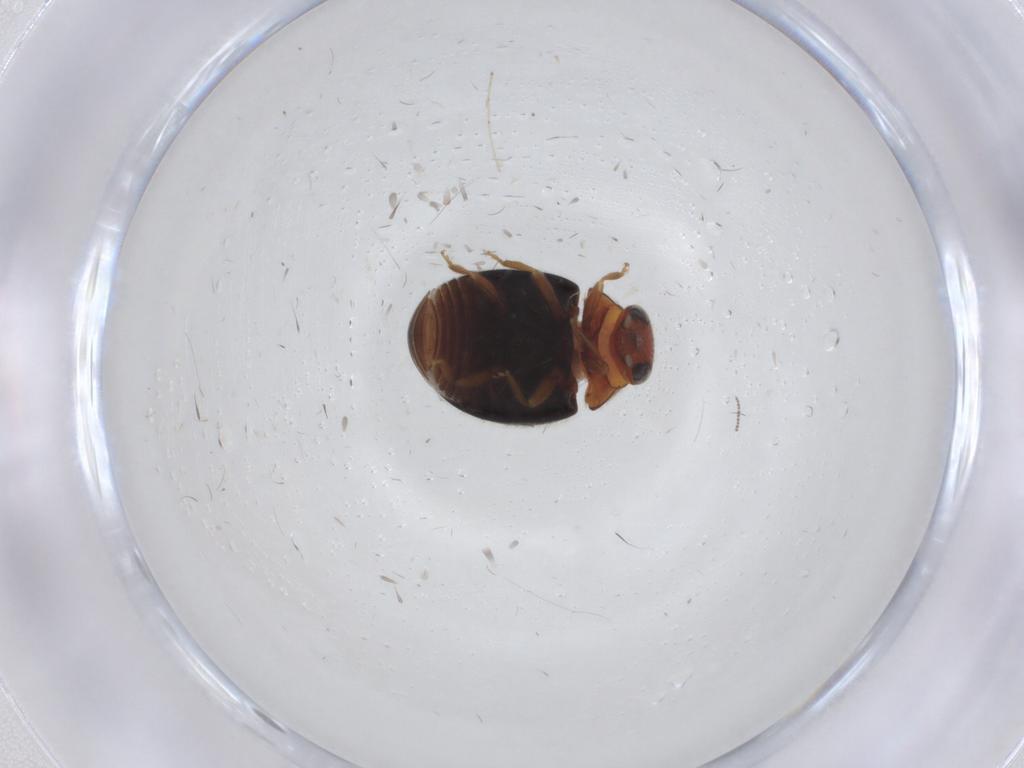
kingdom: Animalia
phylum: Arthropoda
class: Insecta
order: Coleoptera
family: Coccinellidae
